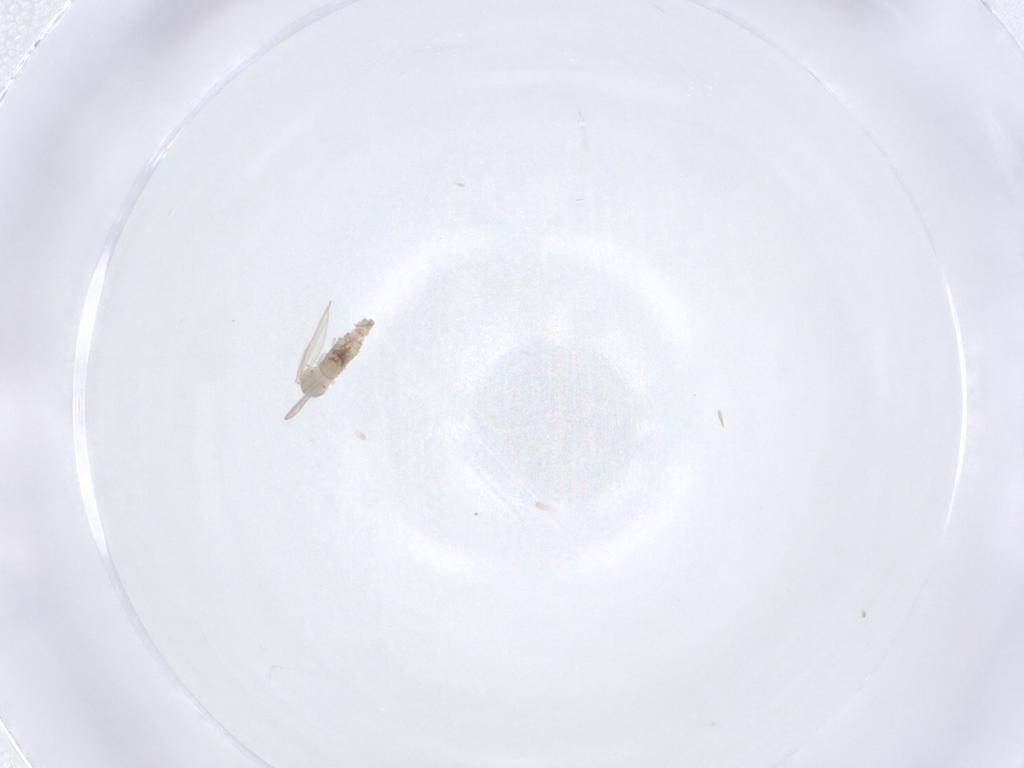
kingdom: Animalia
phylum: Arthropoda
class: Insecta
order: Diptera
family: Psychodidae
